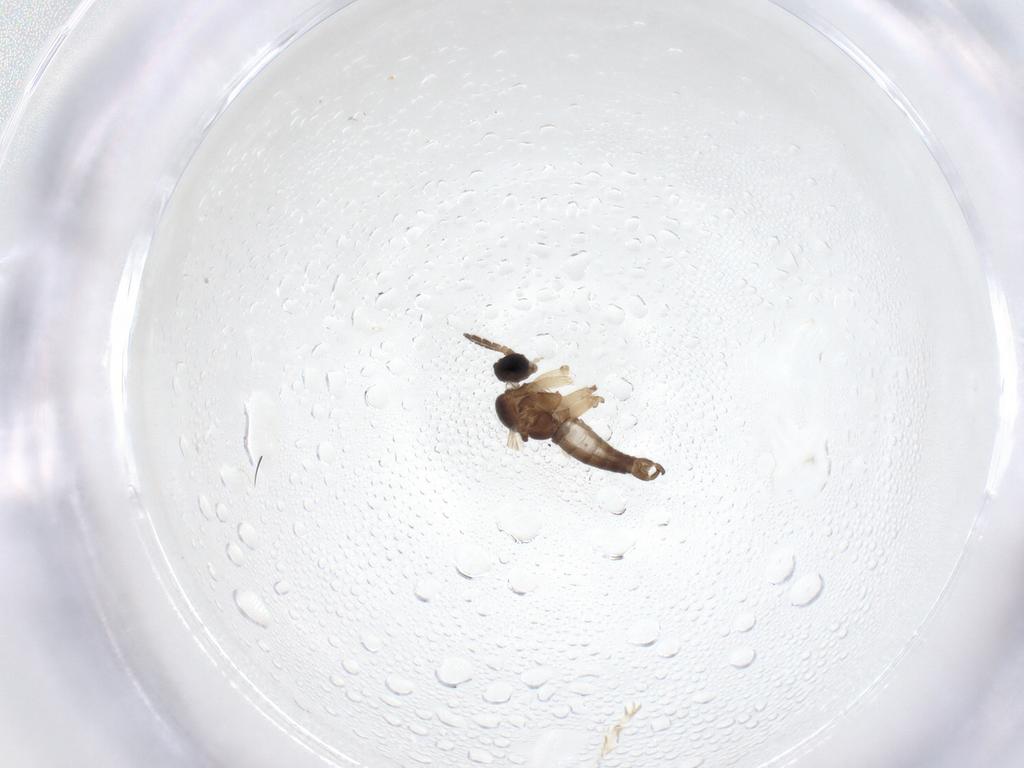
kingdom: Animalia
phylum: Arthropoda
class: Insecta
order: Diptera
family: Sciaridae
